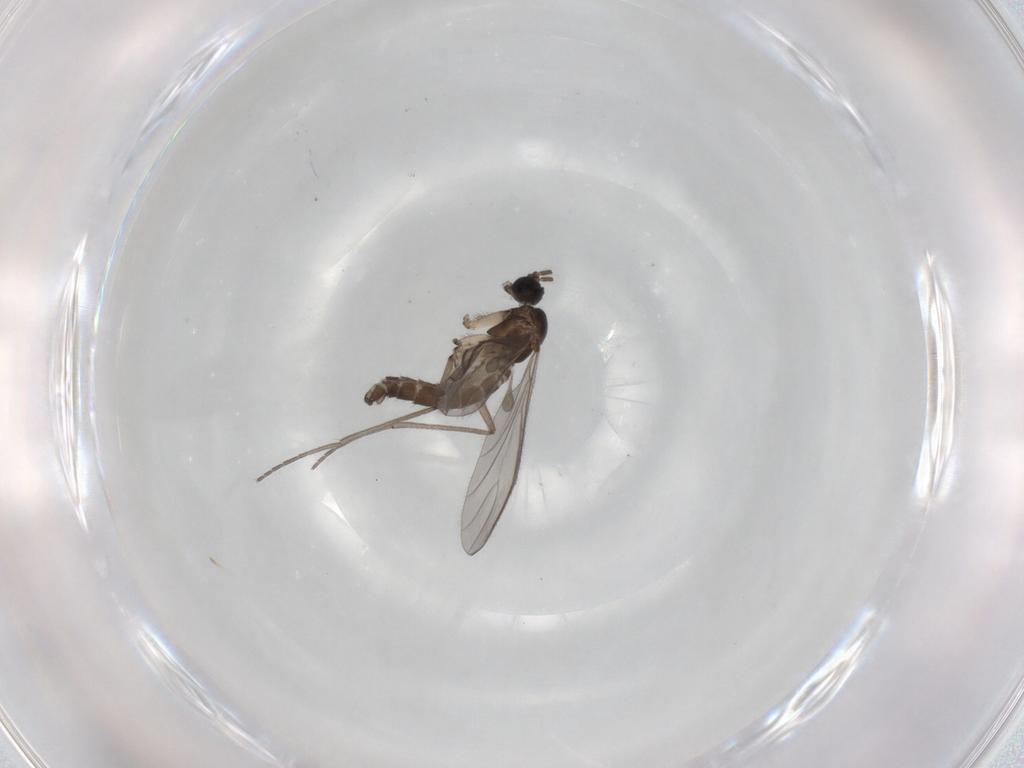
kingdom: Animalia
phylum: Arthropoda
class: Insecta
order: Diptera
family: Sciaridae
